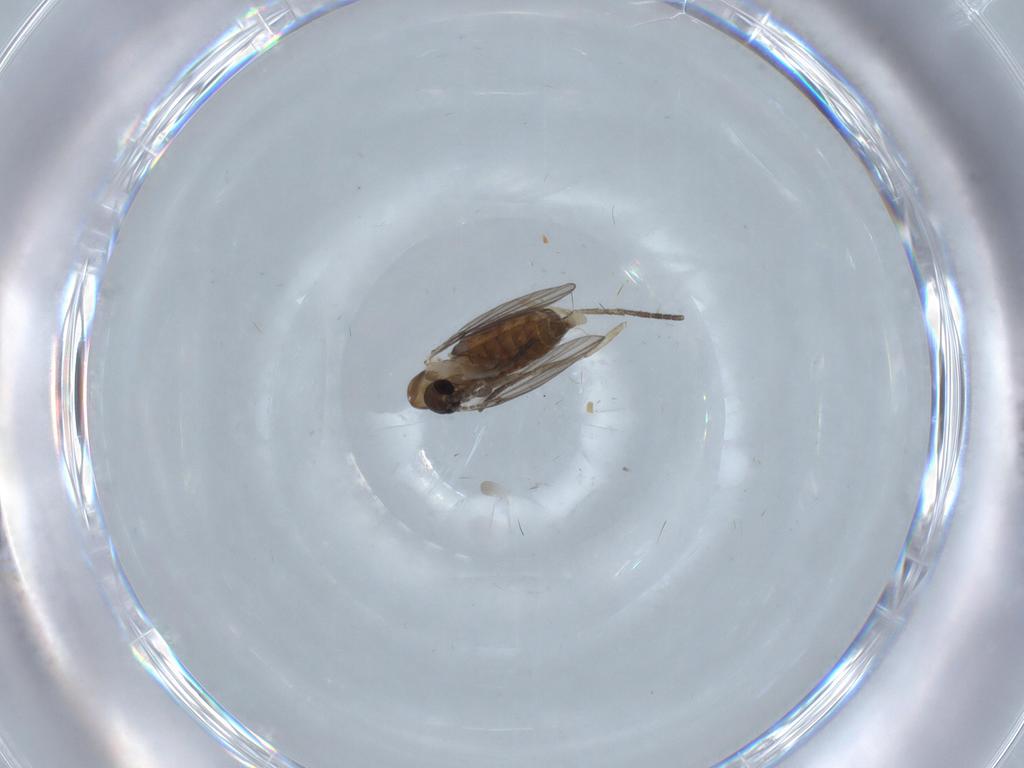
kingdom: Animalia
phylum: Arthropoda
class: Insecta
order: Diptera
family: Psychodidae
